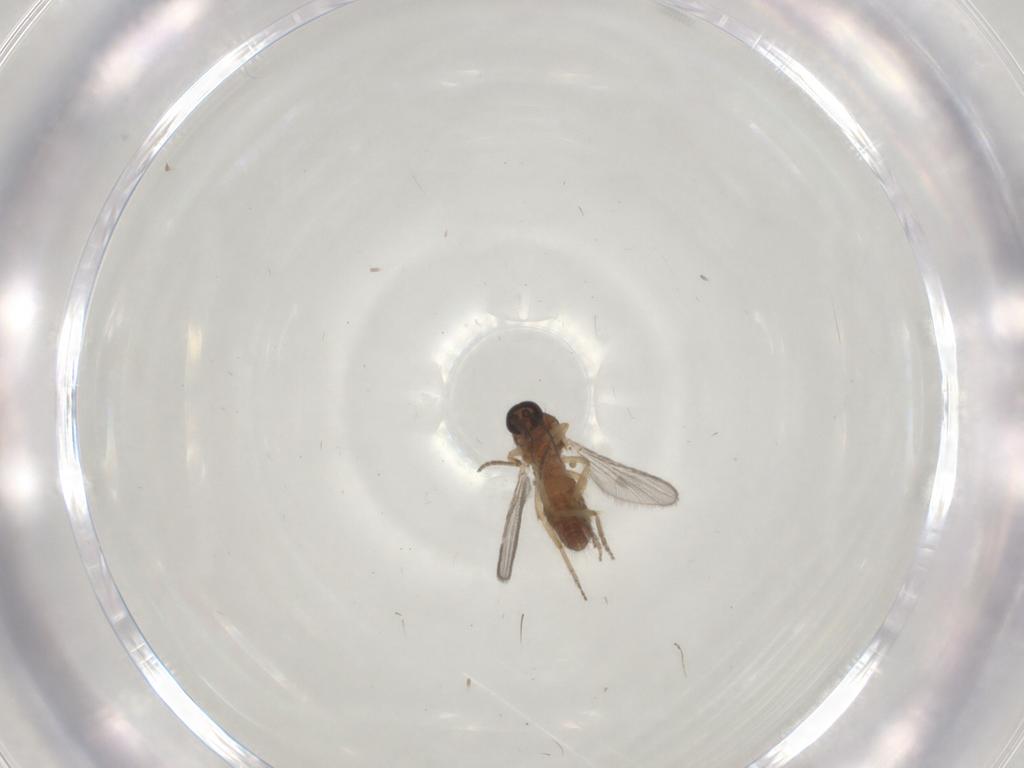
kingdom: Animalia
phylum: Arthropoda
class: Insecta
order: Diptera
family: Ceratopogonidae
